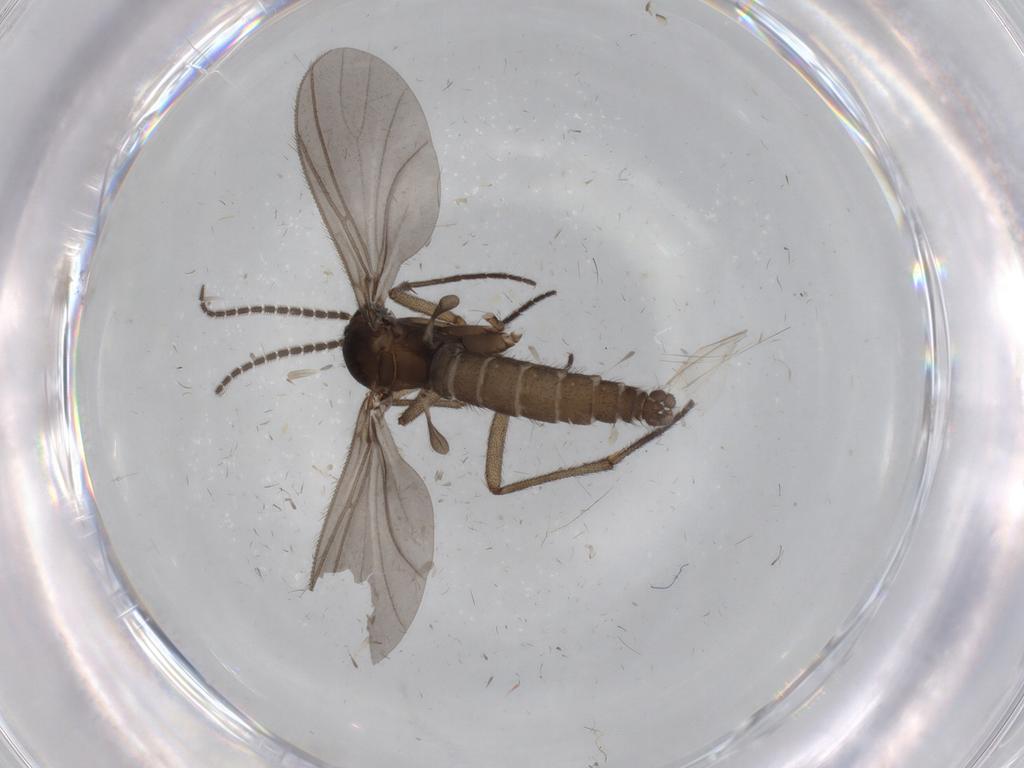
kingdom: Animalia
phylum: Arthropoda
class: Insecta
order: Diptera
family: Sciaridae
